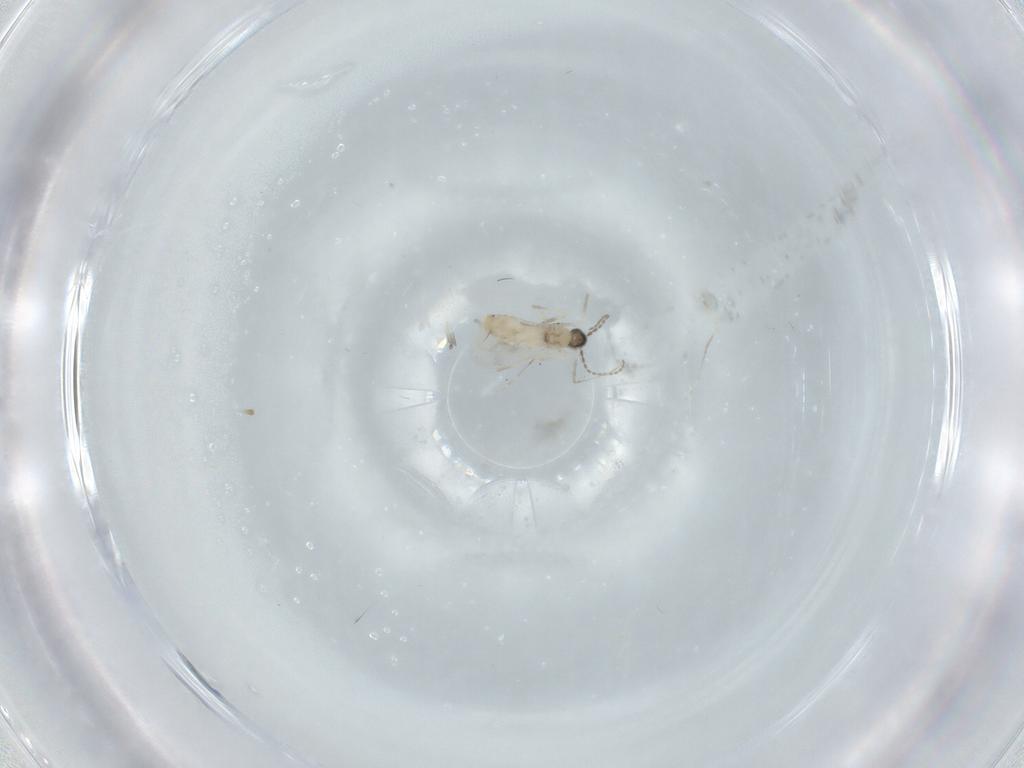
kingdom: Animalia
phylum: Arthropoda
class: Insecta
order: Diptera
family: Cecidomyiidae
